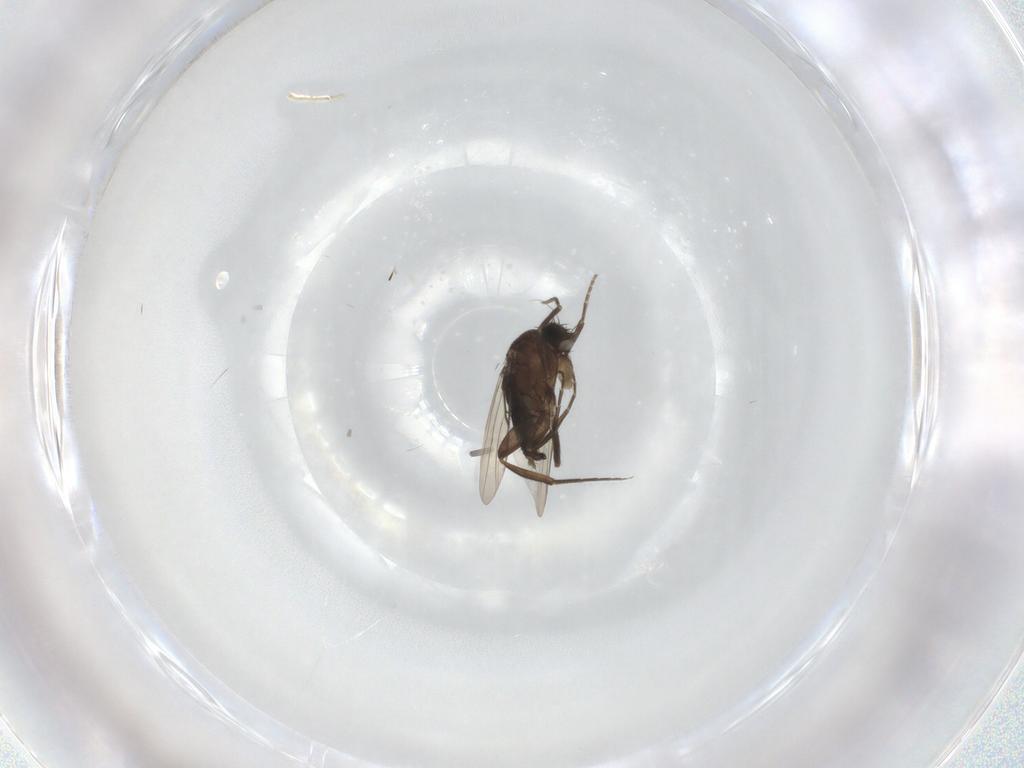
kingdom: Animalia
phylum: Arthropoda
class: Insecta
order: Diptera
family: Phoridae
